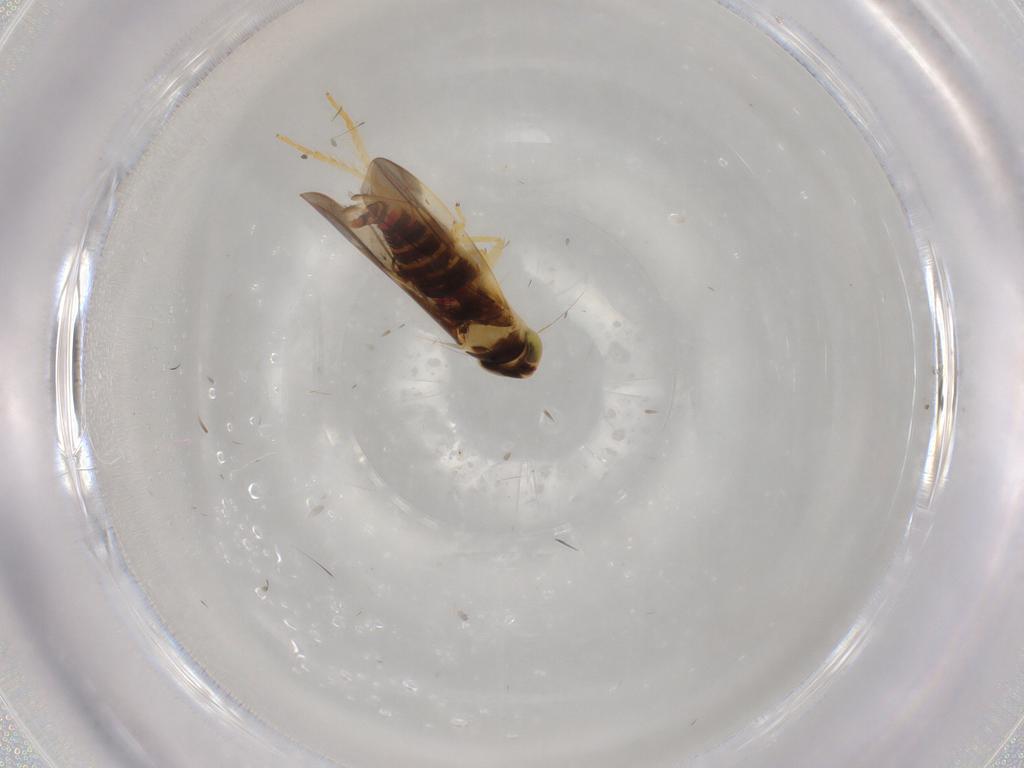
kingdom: Animalia
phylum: Arthropoda
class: Insecta
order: Hemiptera
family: Cicadellidae
